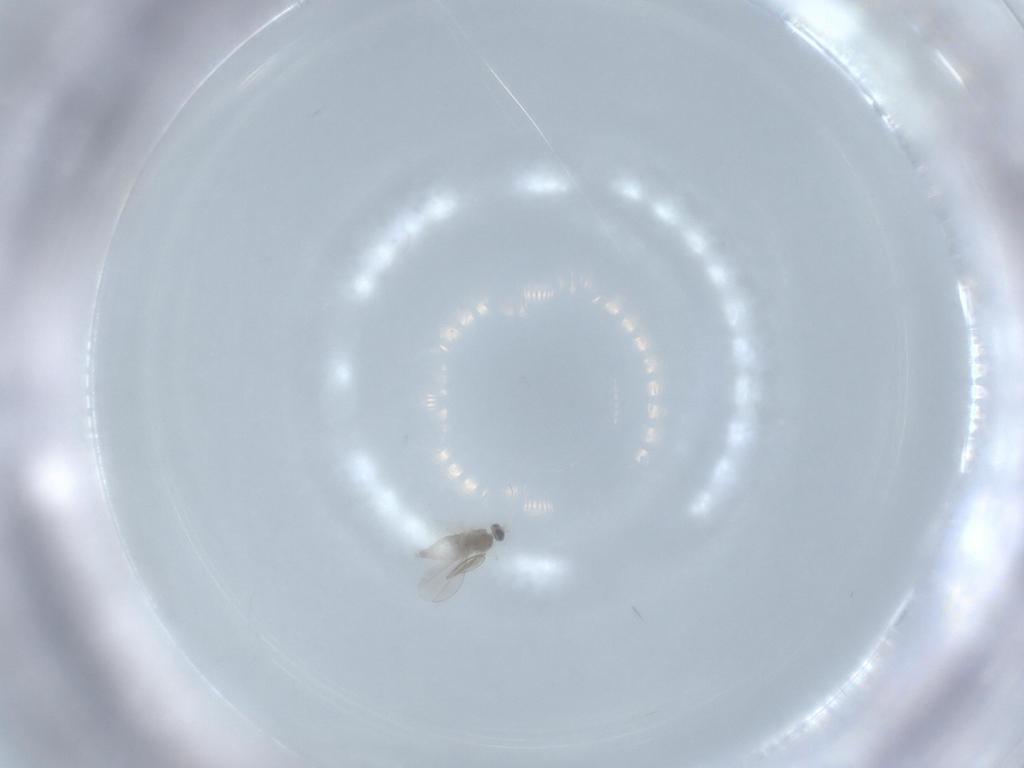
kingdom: Animalia
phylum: Arthropoda
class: Insecta
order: Diptera
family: Cecidomyiidae
